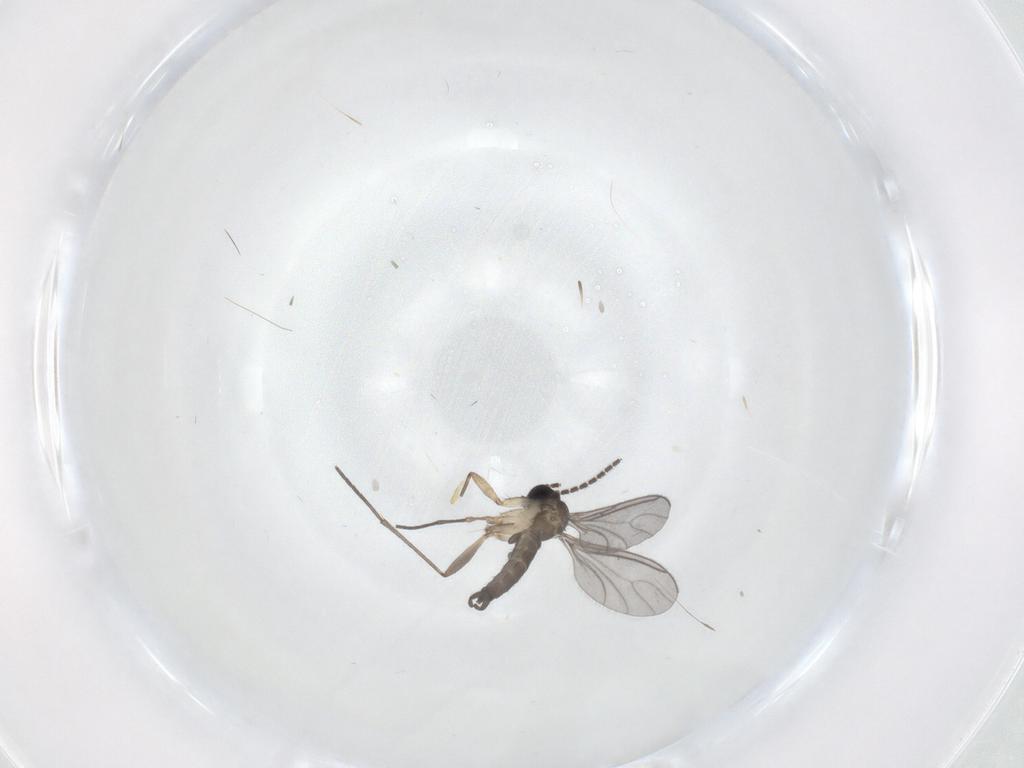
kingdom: Animalia
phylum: Arthropoda
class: Insecta
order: Diptera
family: Sciaridae
